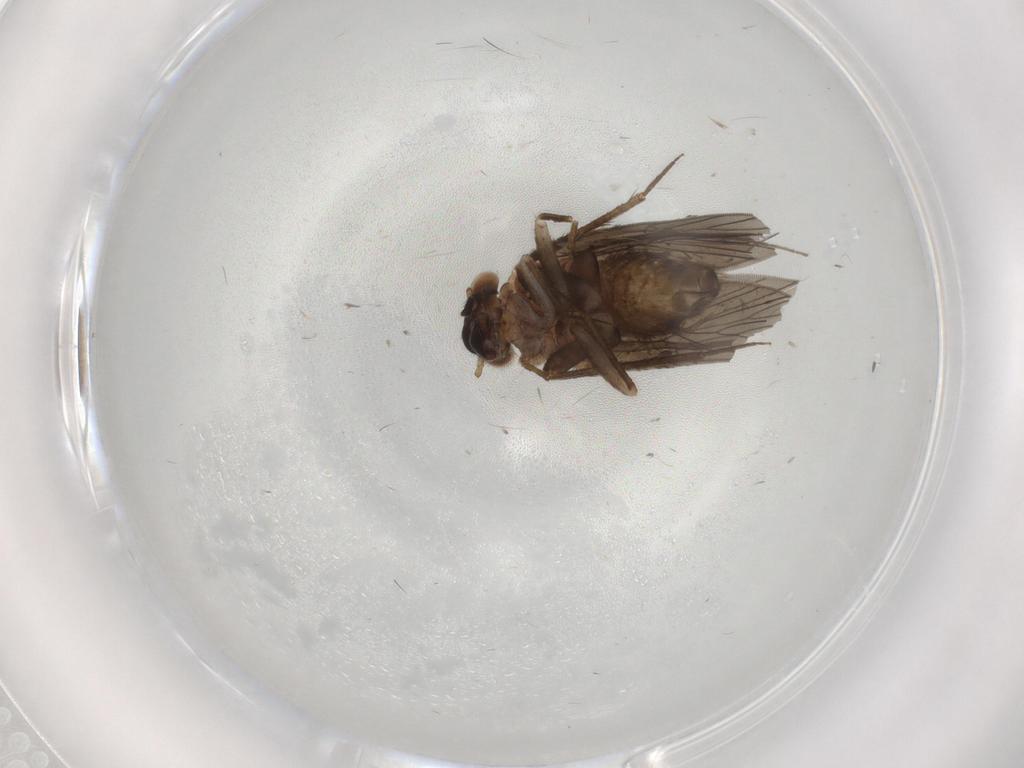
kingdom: Animalia
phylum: Arthropoda
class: Insecta
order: Psocodea
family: Lepidopsocidae
